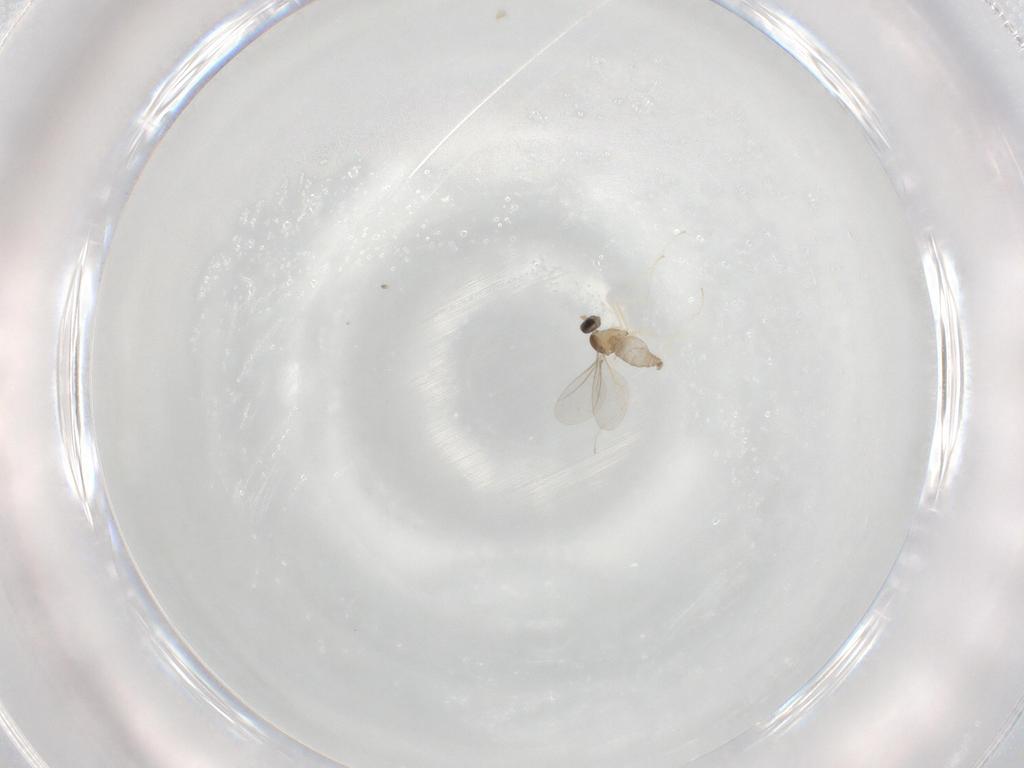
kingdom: Animalia
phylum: Arthropoda
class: Insecta
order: Diptera
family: Cecidomyiidae
